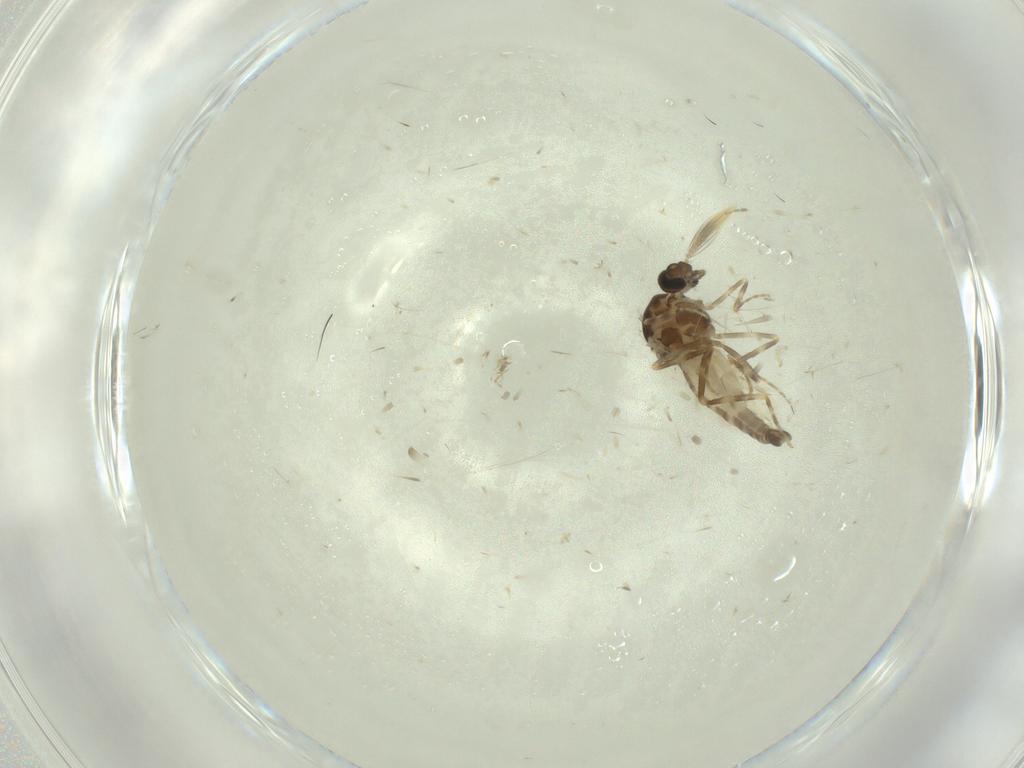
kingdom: Animalia
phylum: Arthropoda
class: Insecta
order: Diptera
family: Ceratopogonidae
